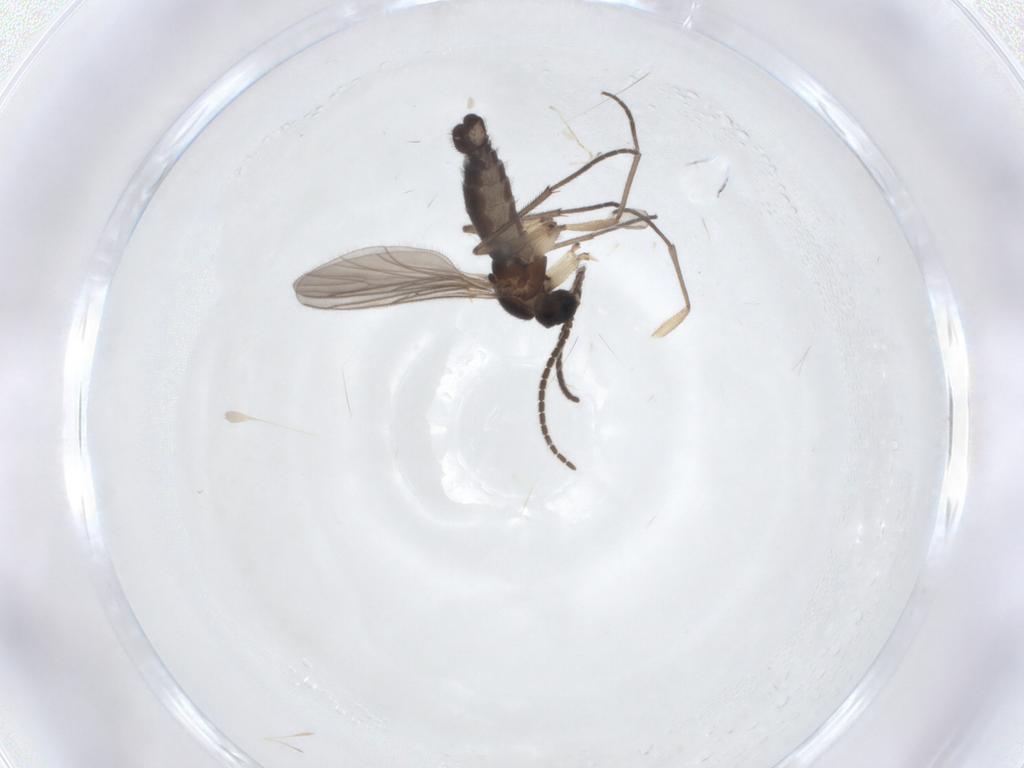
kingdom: Animalia
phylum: Arthropoda
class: Insecta
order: Diptera
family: Sciaridae
